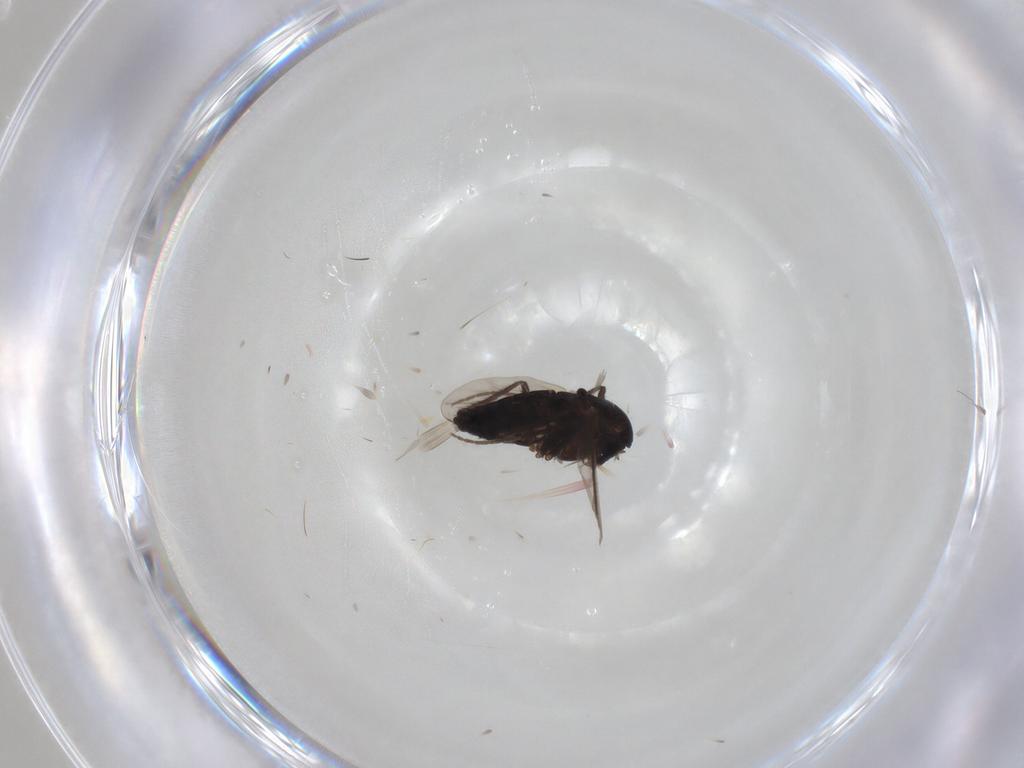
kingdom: Animalia
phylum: Arthropoda
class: Insecta
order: Diptera
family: Chironomidae
